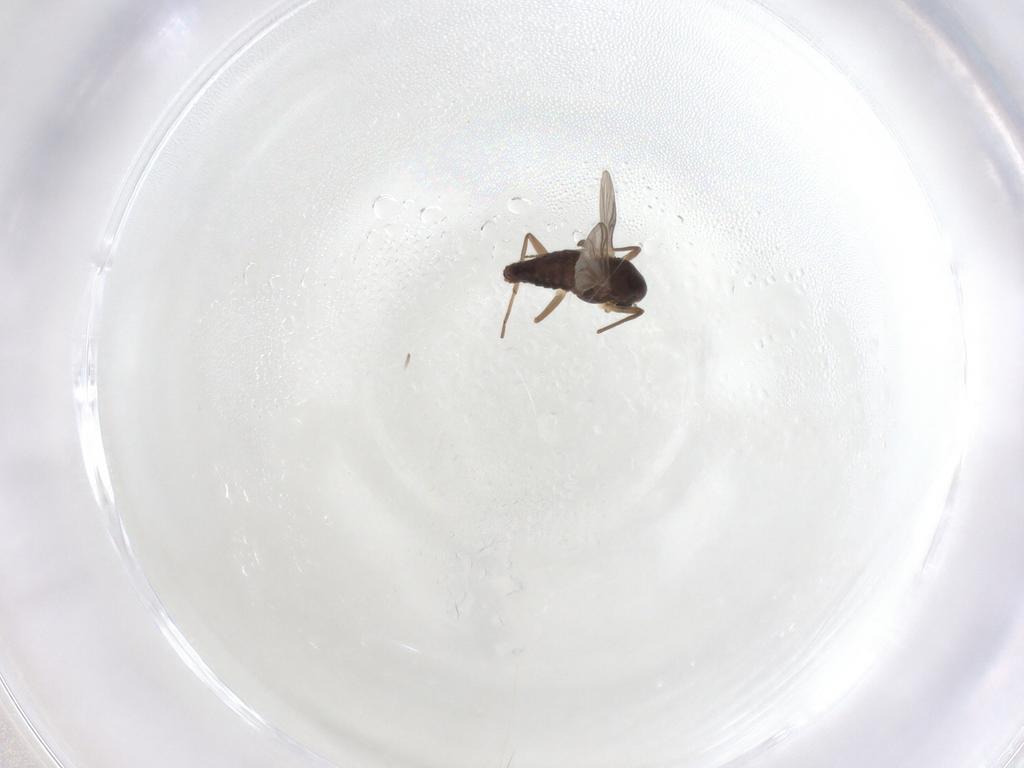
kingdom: Animalia
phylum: Arthropoda
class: Insecta
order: Diptera
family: Chironomidae
